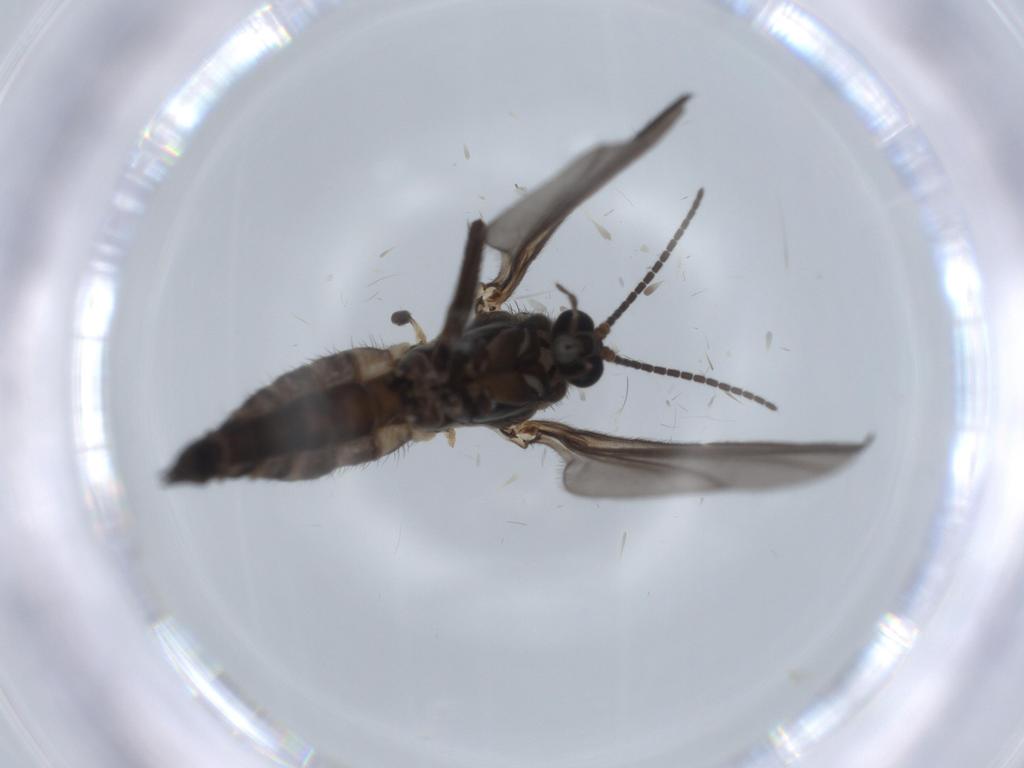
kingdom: Animalia
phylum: Arthropoda
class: Insecta
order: Diptera
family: Sciaridae
